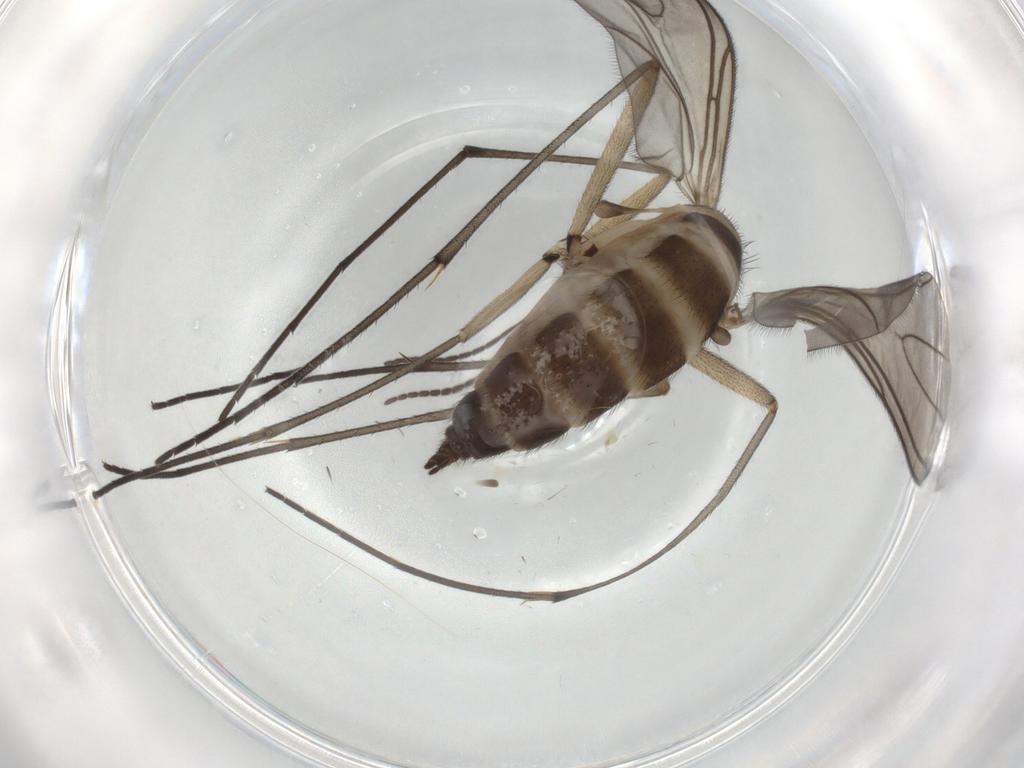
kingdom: Animalia
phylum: Arthropoda
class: Insecta
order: Diptera
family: Sciaridae
